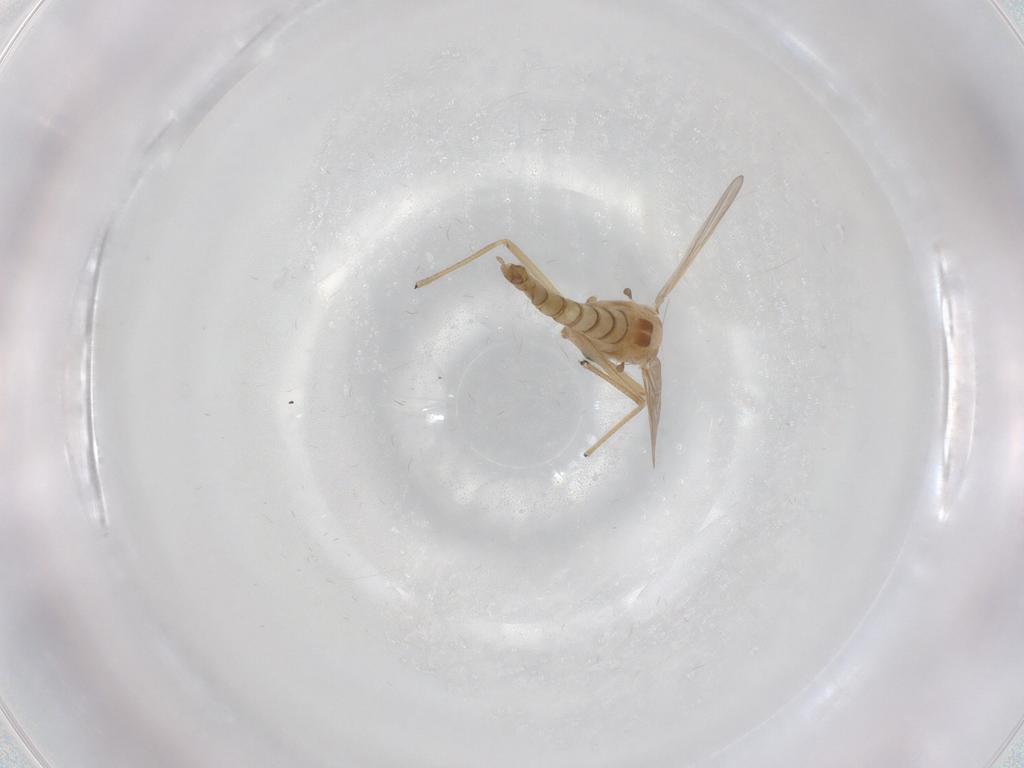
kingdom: Animalia
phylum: Arthropoda
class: Insecta
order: Diptera
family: Chironomidae
